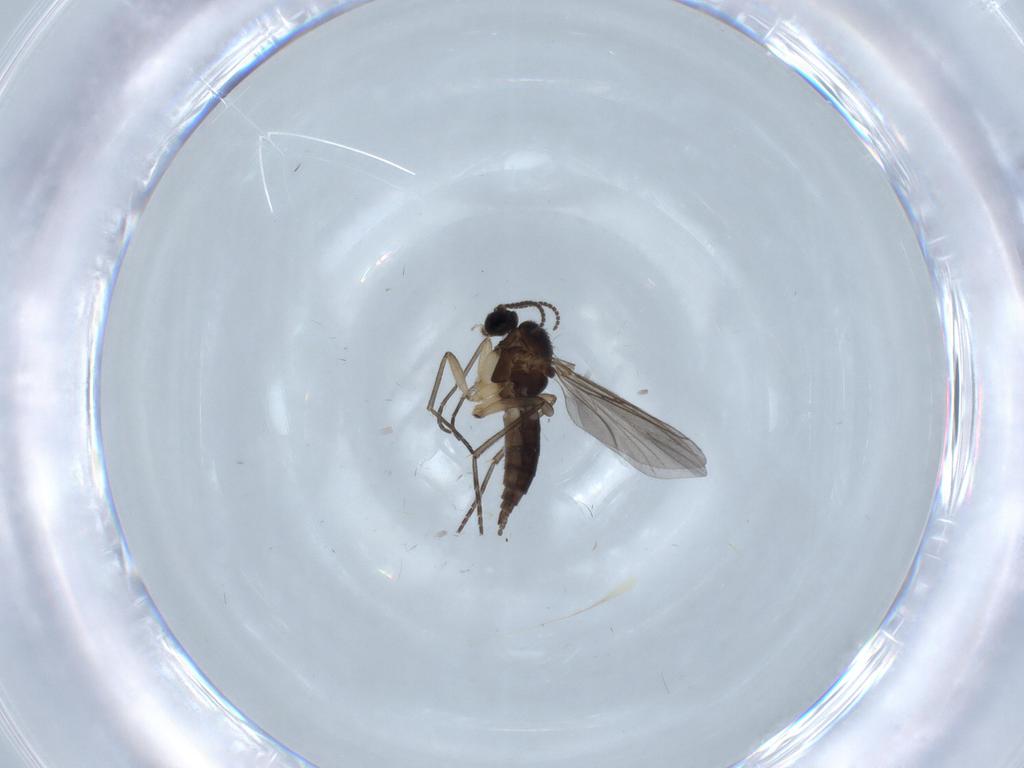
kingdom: Animalia
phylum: Arthropoda
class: Insecta
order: Diptera
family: Sciaridae
